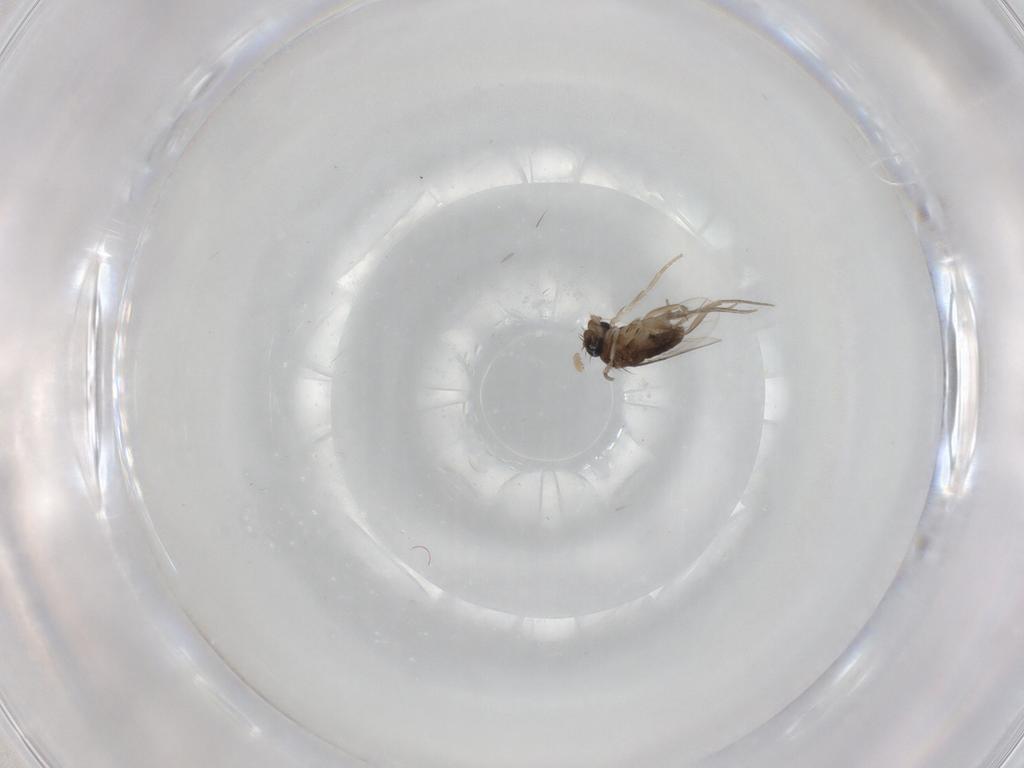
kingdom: Animalia
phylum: Arthropoda
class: Insecta
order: Diptera
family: Phoridae
